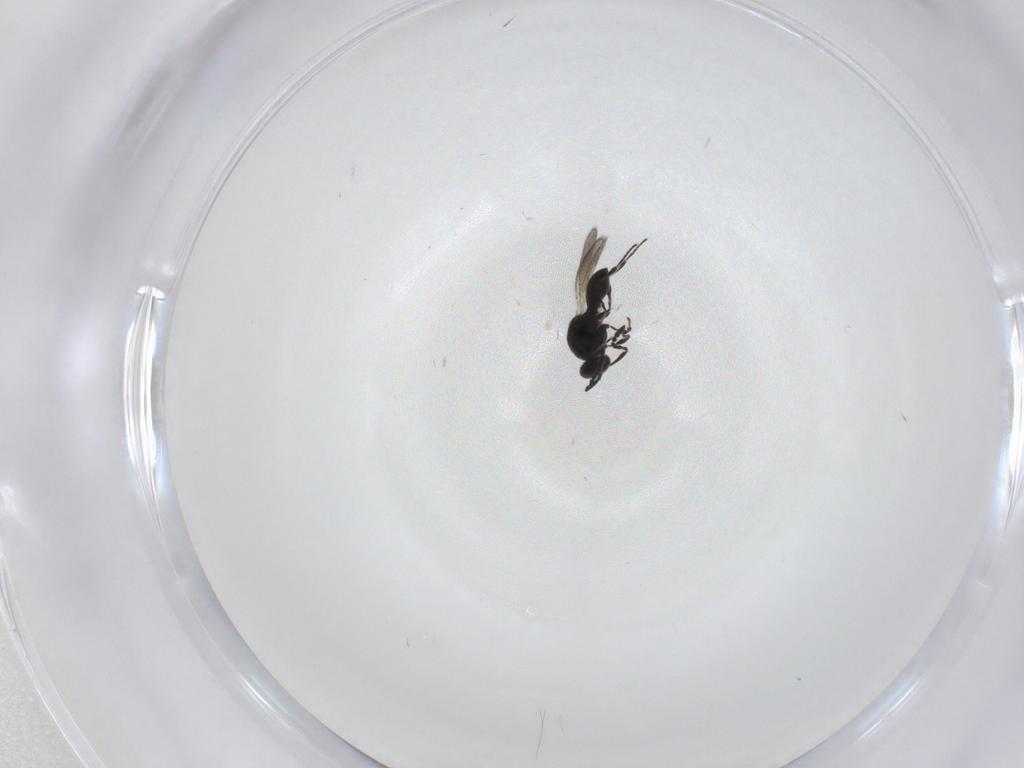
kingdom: Animalia
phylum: Arthropoda
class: Insecta
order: Hymenoptera
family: Platygastridae
